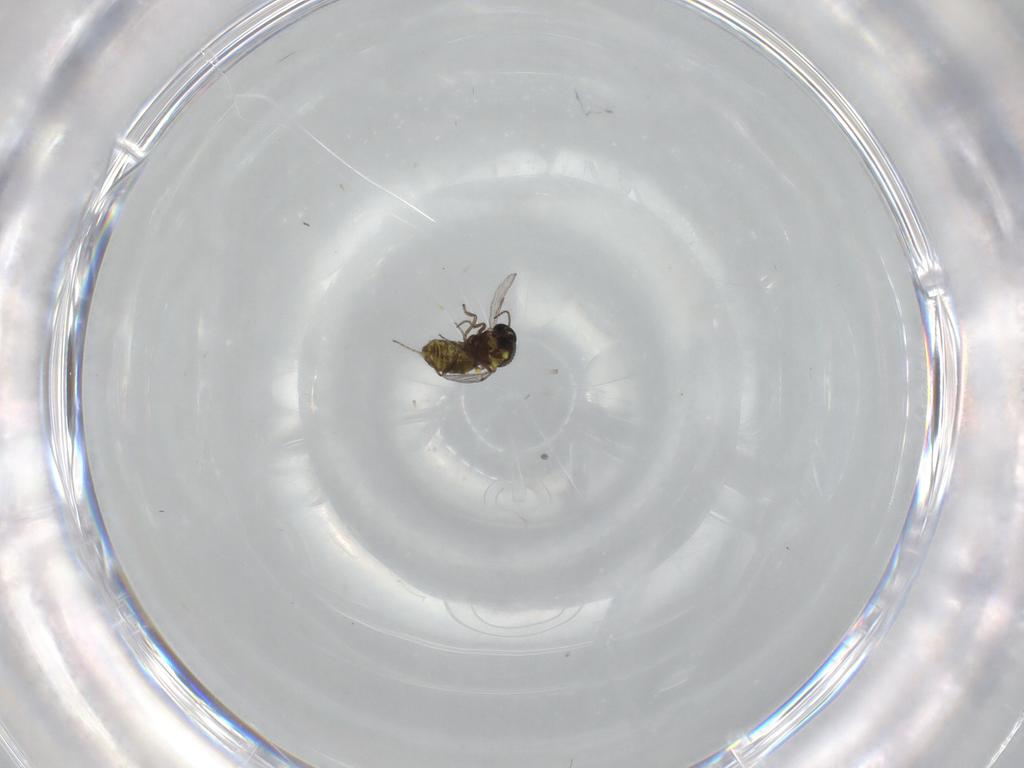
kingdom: Animalia
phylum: Arthropoda
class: Insecta
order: Diptera
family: Ceratopogonidae
